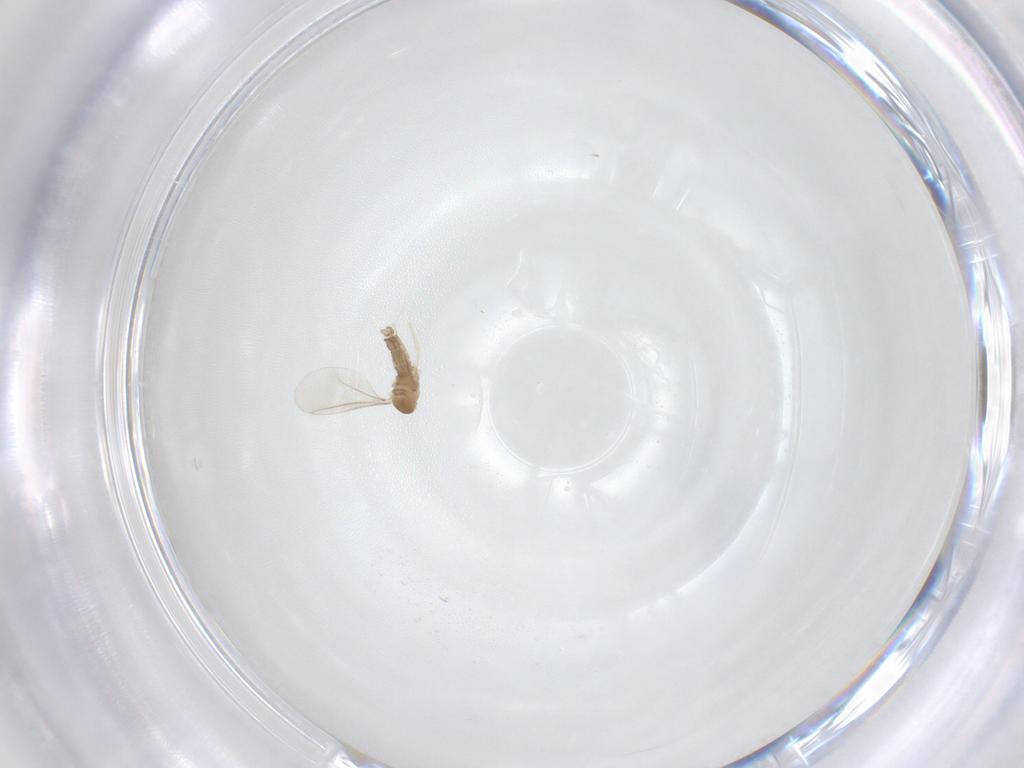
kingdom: Animalia
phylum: Arthropoda
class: Insecta
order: Diptera
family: Cecidomyiidae
